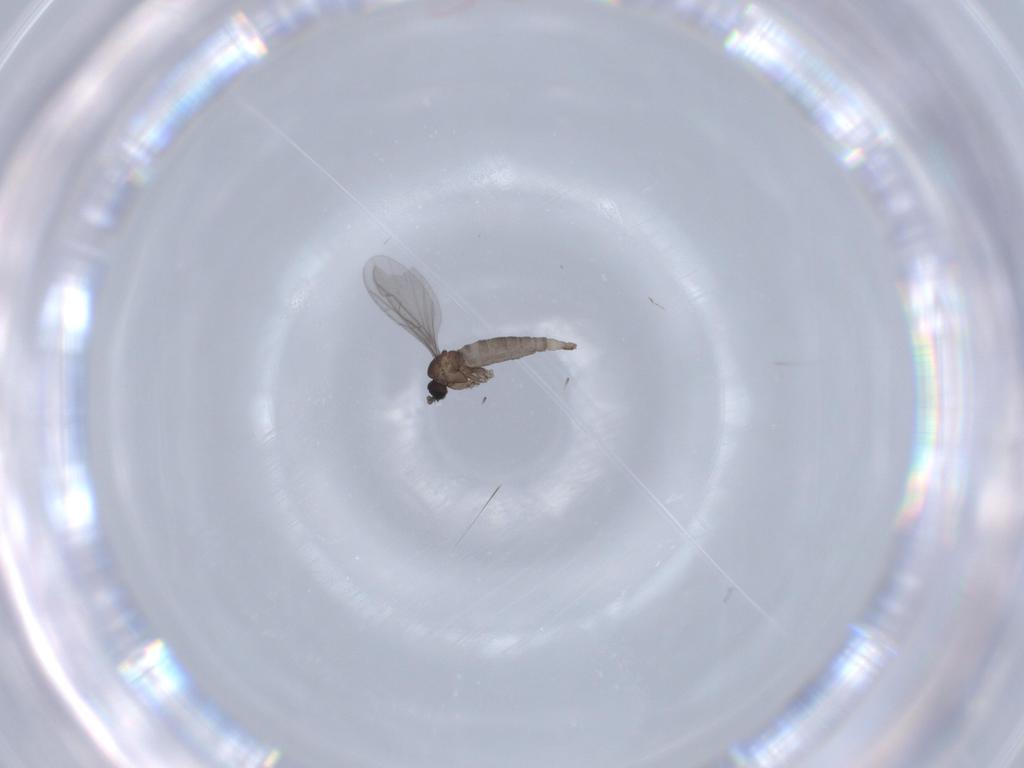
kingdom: Animalia
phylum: Arthropoda
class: Insecta
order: Diptera
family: Sciaridae
